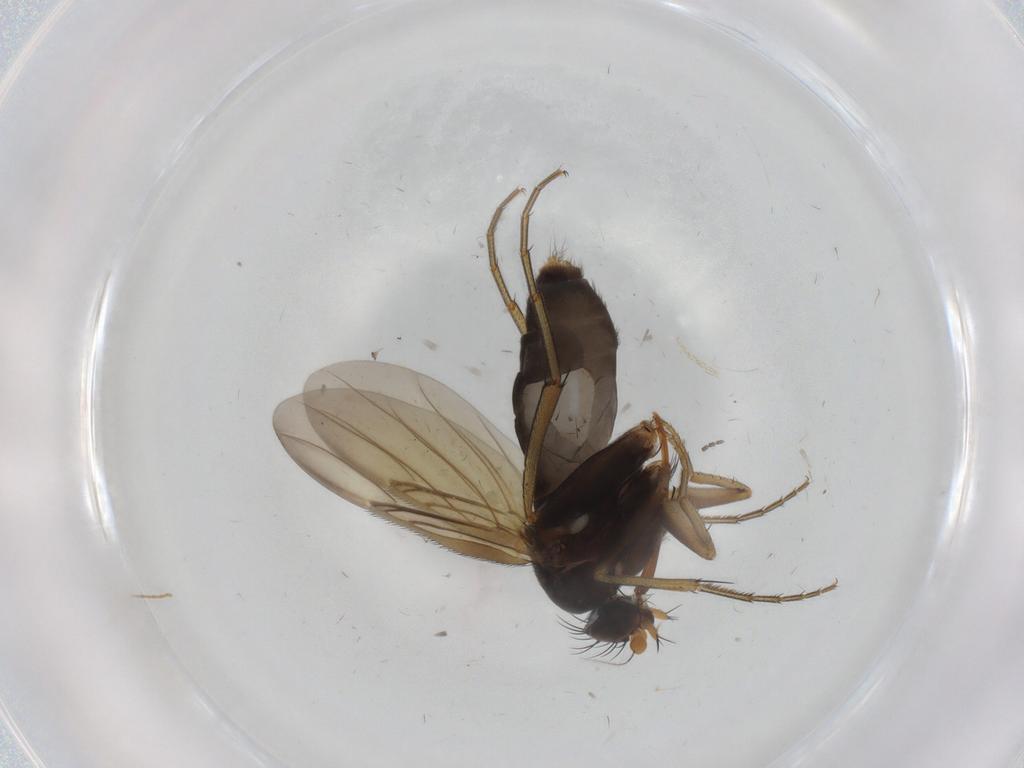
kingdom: Animalia
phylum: Arthropoda
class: Insecta
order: Diptera
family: Phoridae
